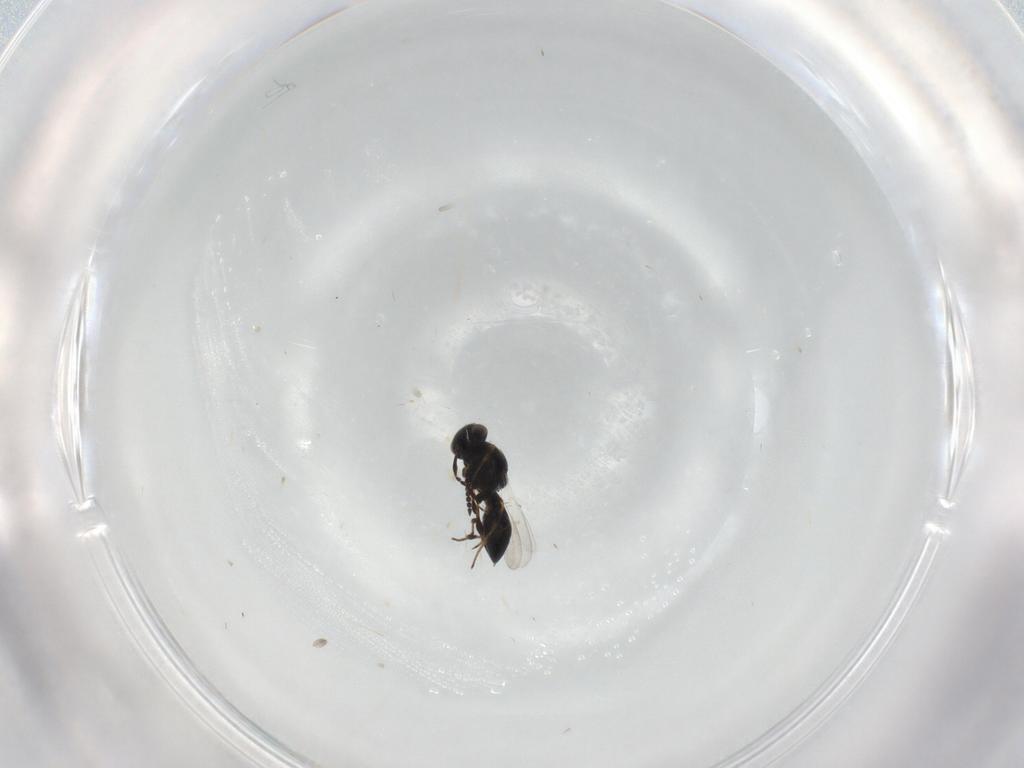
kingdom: Animalia
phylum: Arthropoda
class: Insecta
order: Hymenoptera
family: Platygastridae
